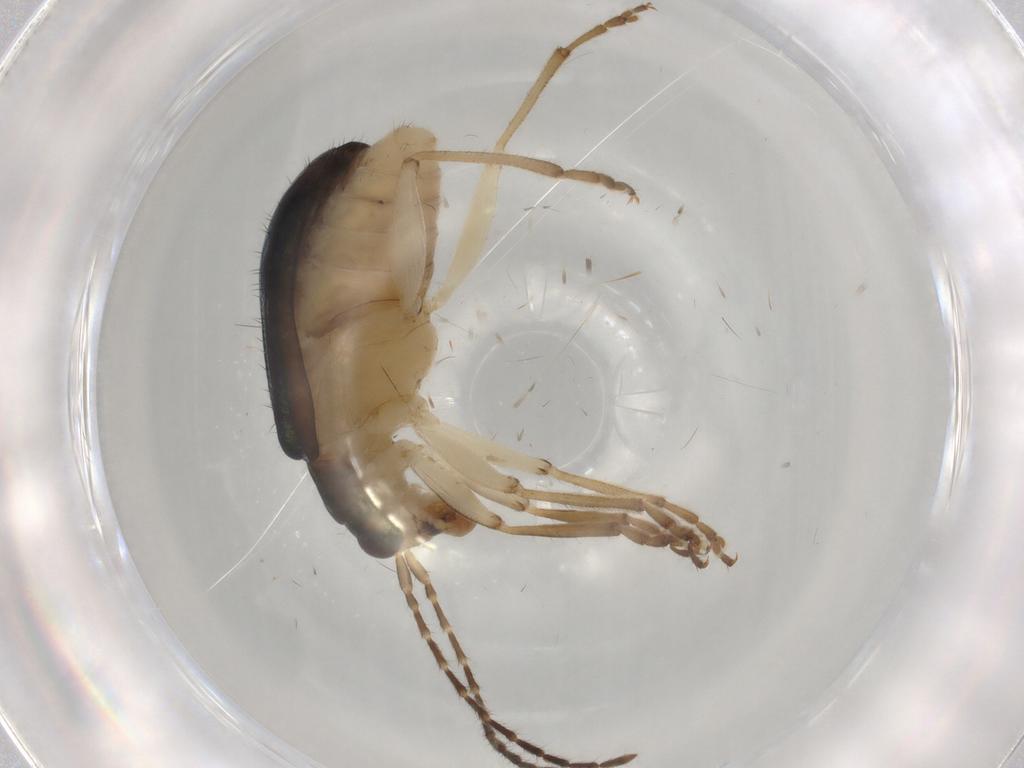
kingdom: Animalia
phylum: Arthropoda
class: Insecta
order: Coleoptera
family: Chrysomelidae
